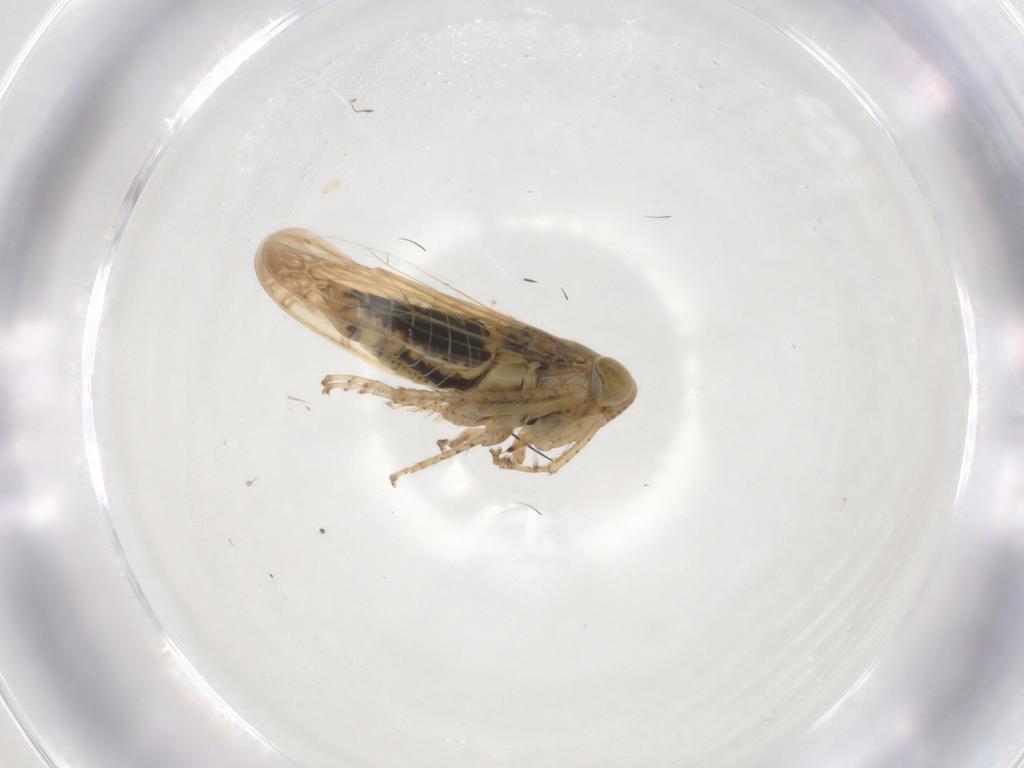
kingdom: Animalia
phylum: Arthropoda
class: Insecta
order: Hemiptera
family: Cicadellidae
